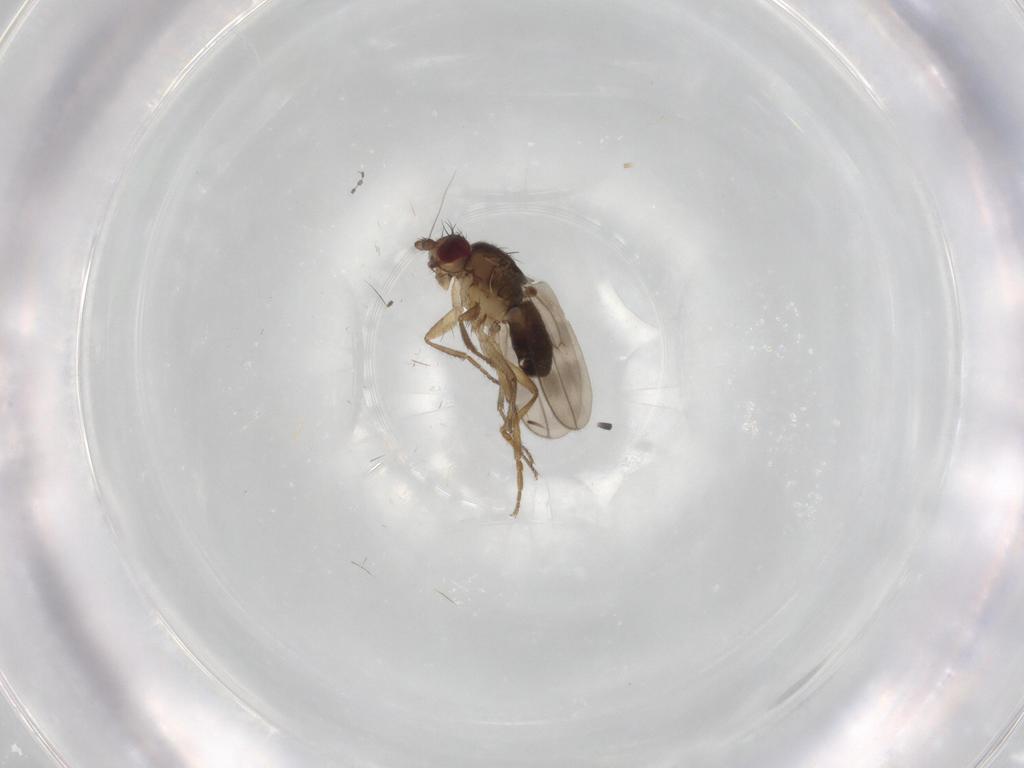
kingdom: Animalia
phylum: Arthropoda
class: Insecta
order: Diptera
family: Sphaeroceridae
